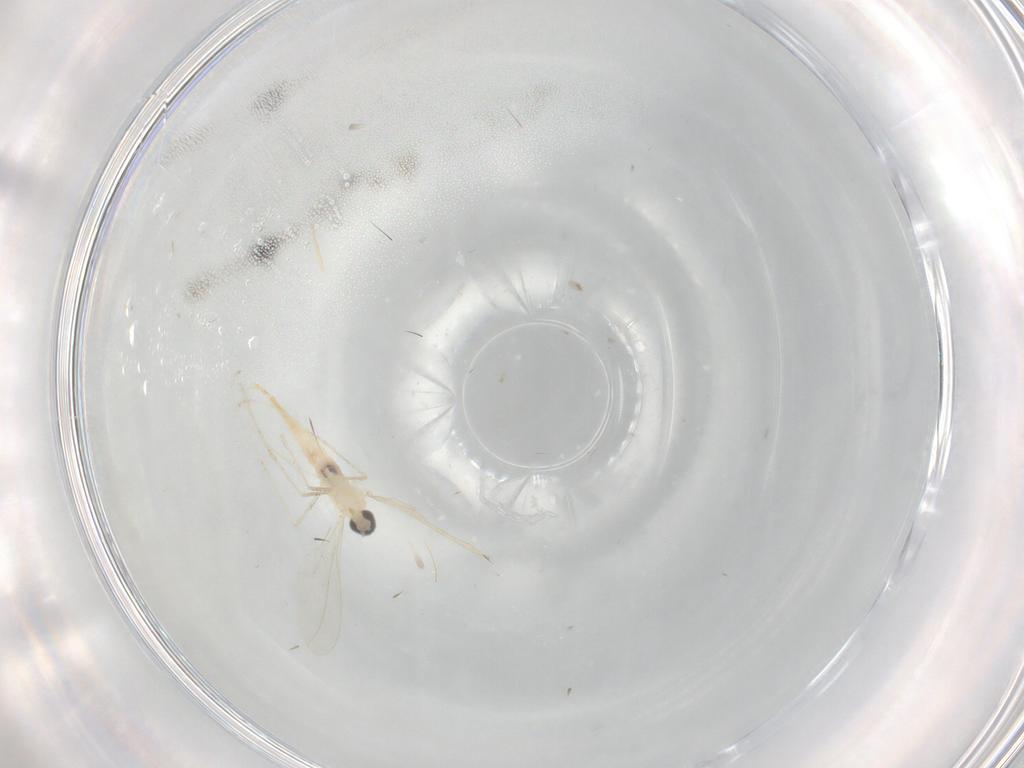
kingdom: Animalia
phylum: Arthropoda
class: Insecta
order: Diptera
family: Cecidomyiidae
